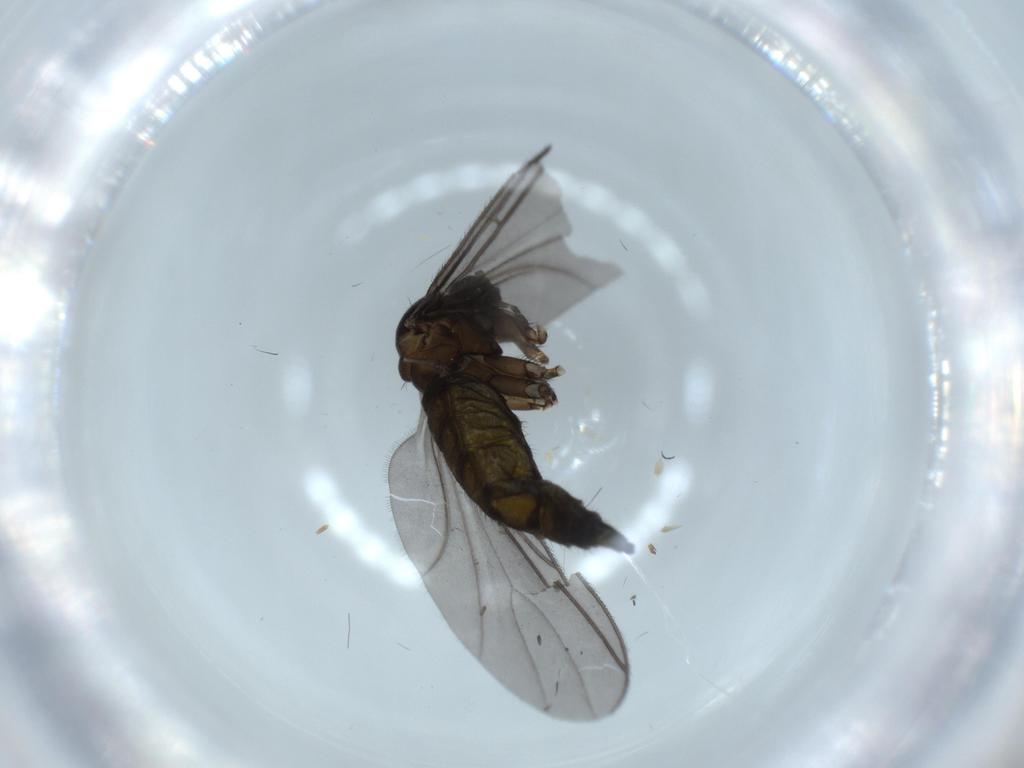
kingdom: Animalia
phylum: Arthropoda
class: Insecta
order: Diptera
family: Sciaridae
